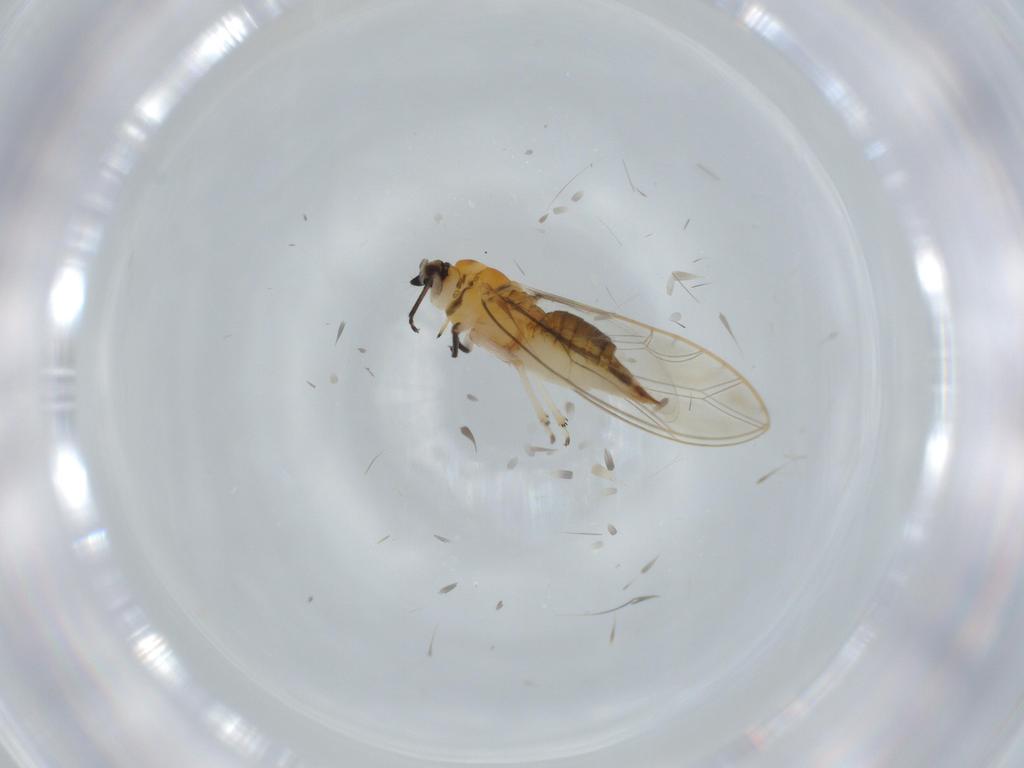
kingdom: Animalia
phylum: Arthropoda
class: Insecta
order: Hemiptera
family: Triozidae
